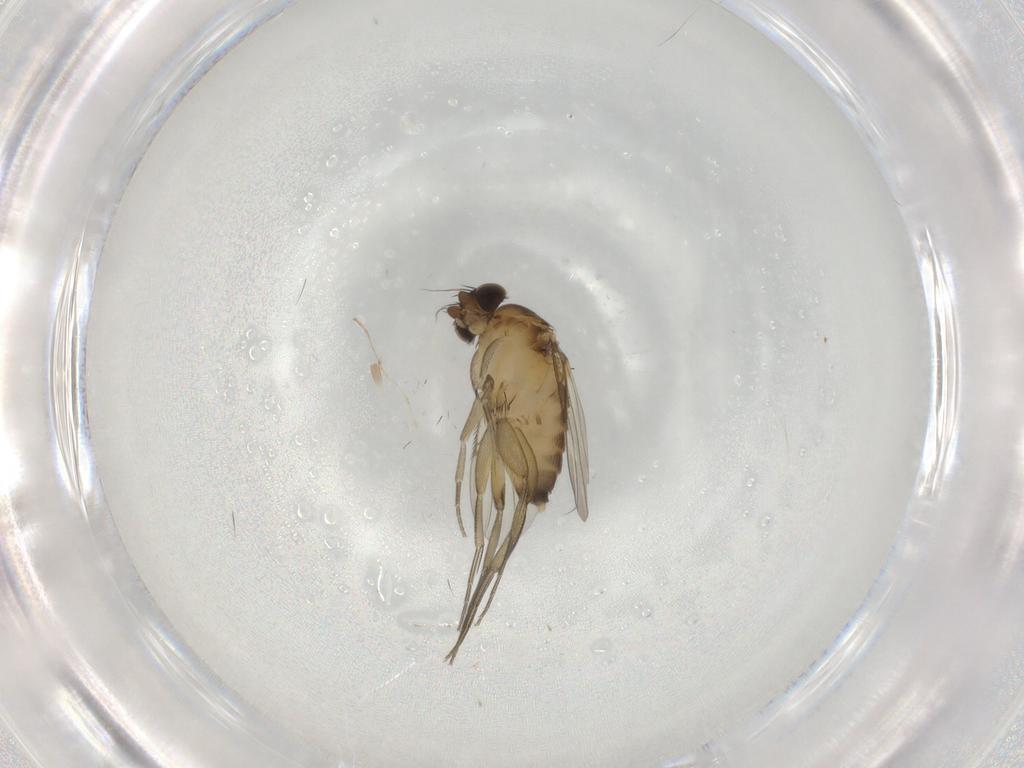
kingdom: Animalia
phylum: Arthropoda
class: Insecta
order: Diptera
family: Phoridae
